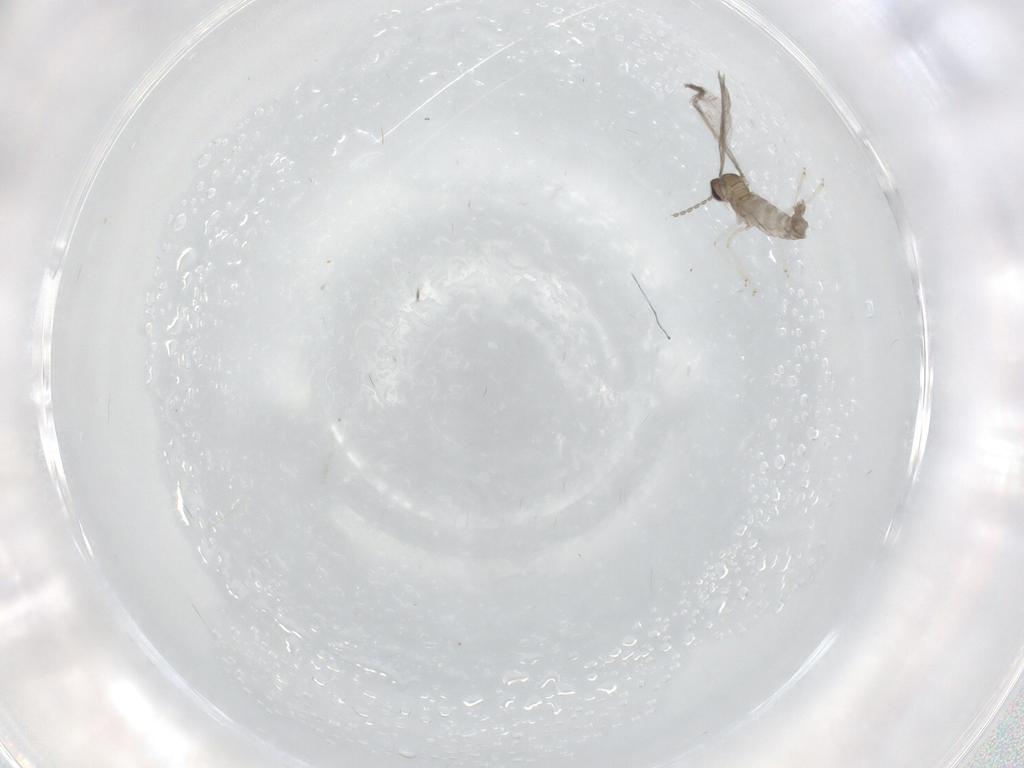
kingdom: Animalia
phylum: Arthropoda
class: Insecta
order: Diptera
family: Cecidomyiidae
